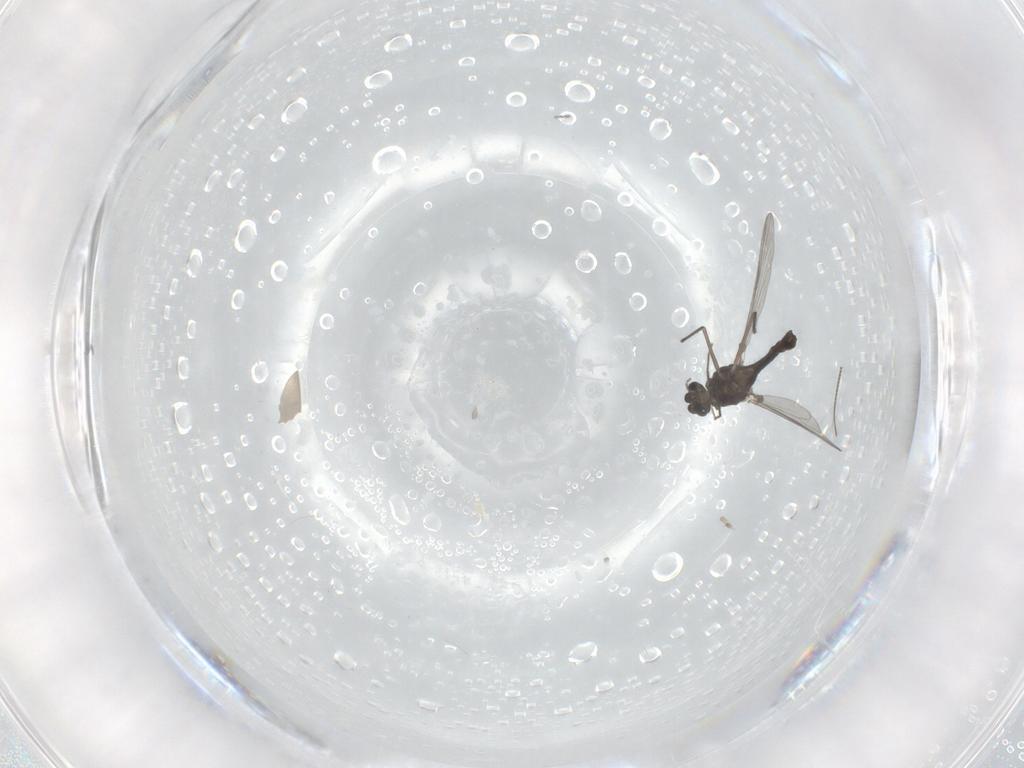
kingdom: Animalia
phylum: Arthropoda
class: Insecta
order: Diptera
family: Chironomidae
